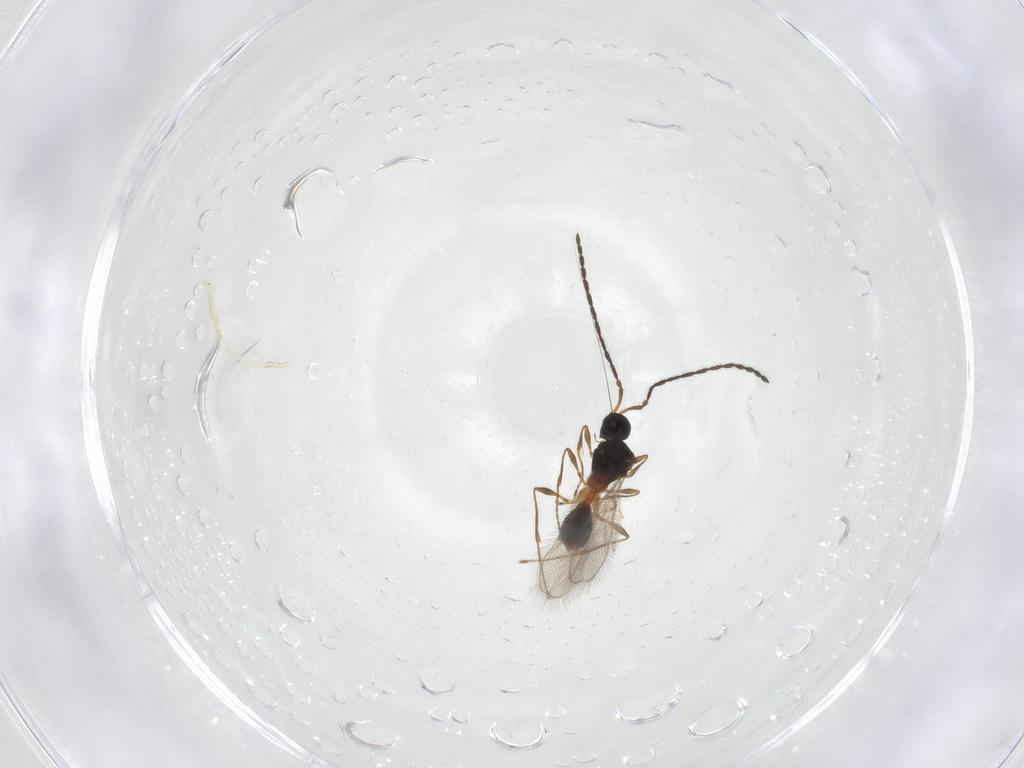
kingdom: Animalia
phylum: Arthropoda
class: Insecta
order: Hymenoptera
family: Diapriidae
